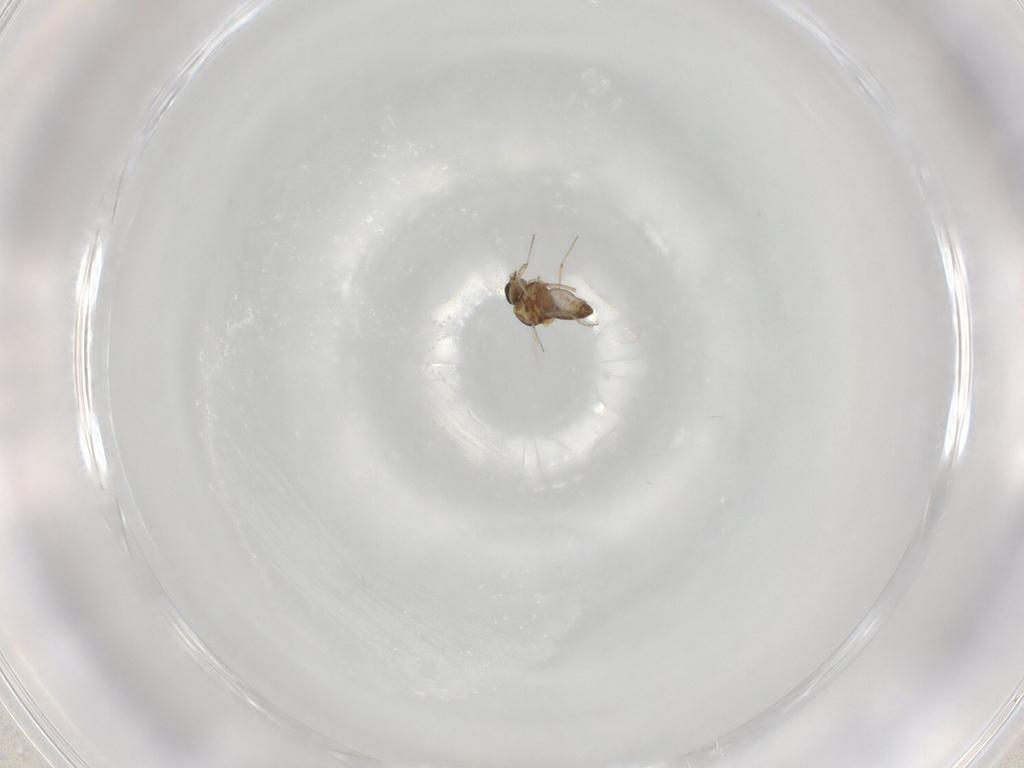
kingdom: Animalia
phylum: Arthropoda
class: Insecta
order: Diptera
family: Ceratopogonidae
